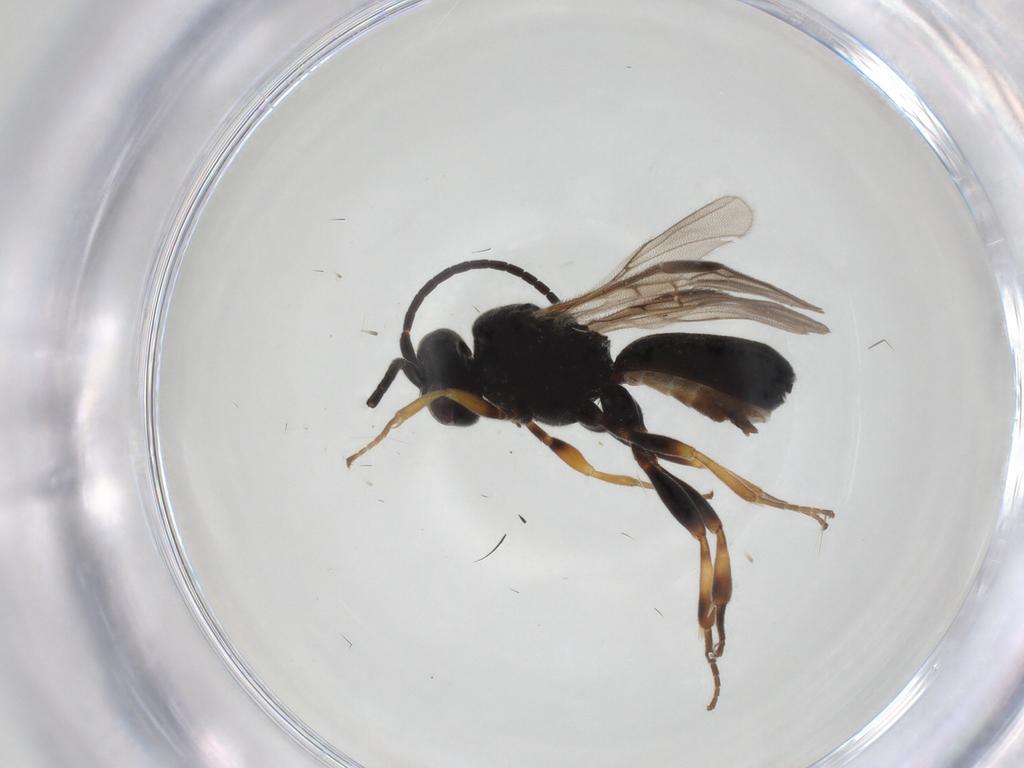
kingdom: Animalia
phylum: Arthropoda
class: Insecta
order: Hymenoptera
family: Braconidae
